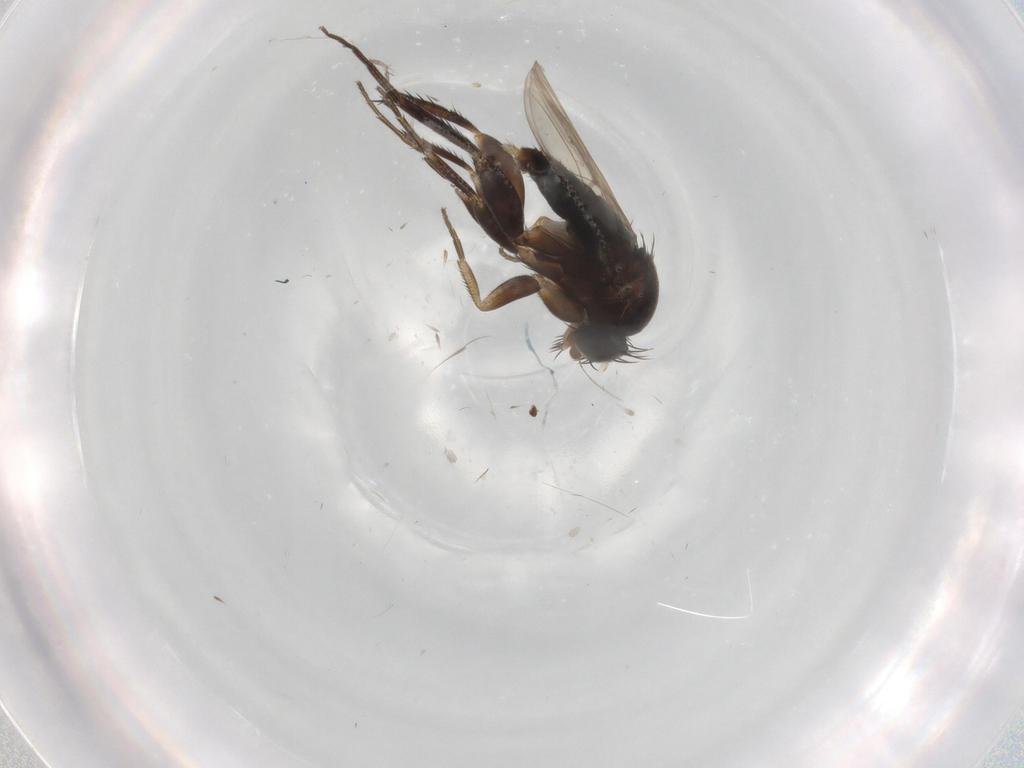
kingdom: Animalia
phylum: Arthropoda
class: Insecta
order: Diptera
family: Phoridae
